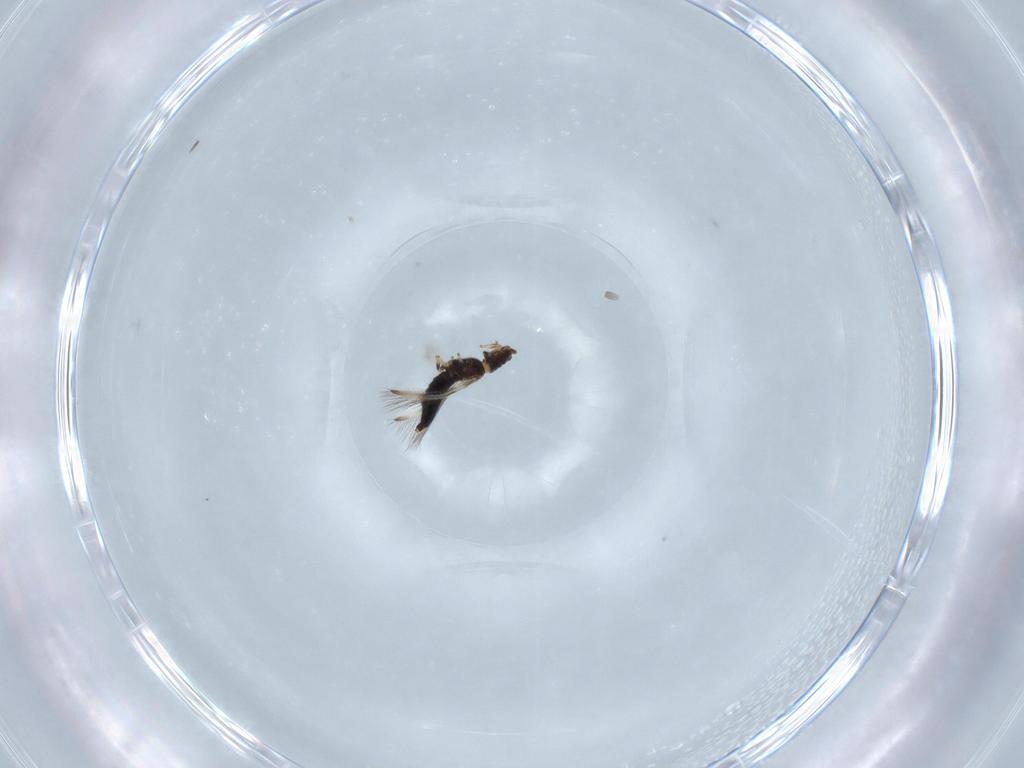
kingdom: Animalia
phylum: Arthropoda
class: Insecta
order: Thysanoptera
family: Thripidae
